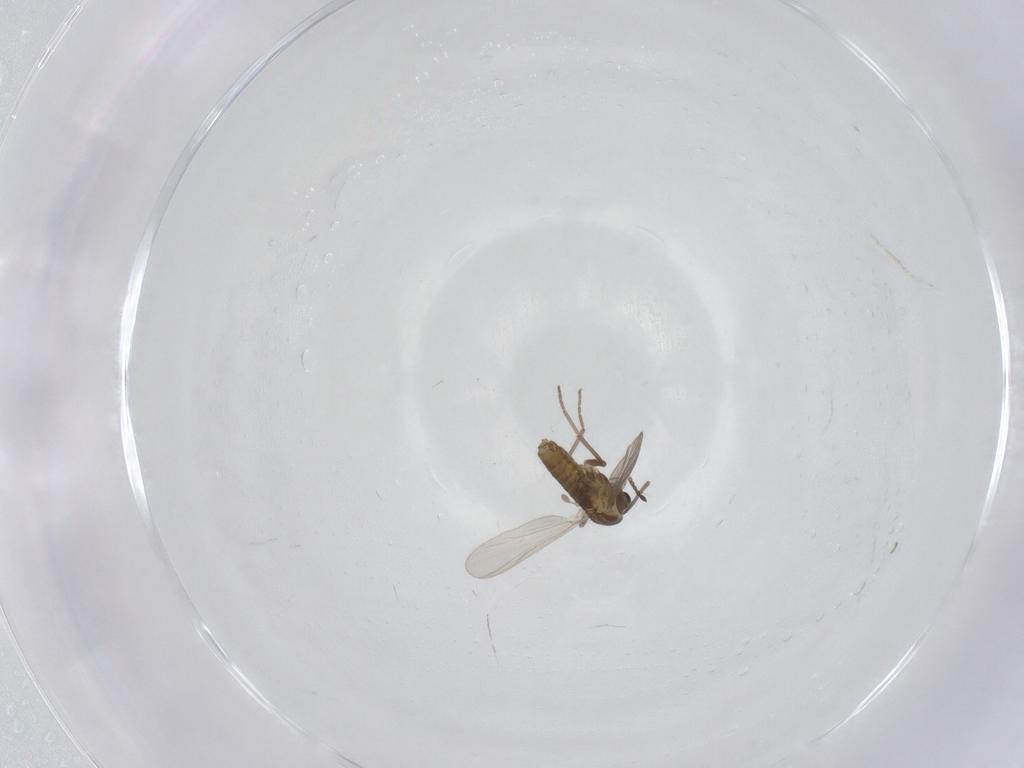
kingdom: Animalia
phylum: Arthropoda
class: Insecta
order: Diptera
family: Chironomidae
